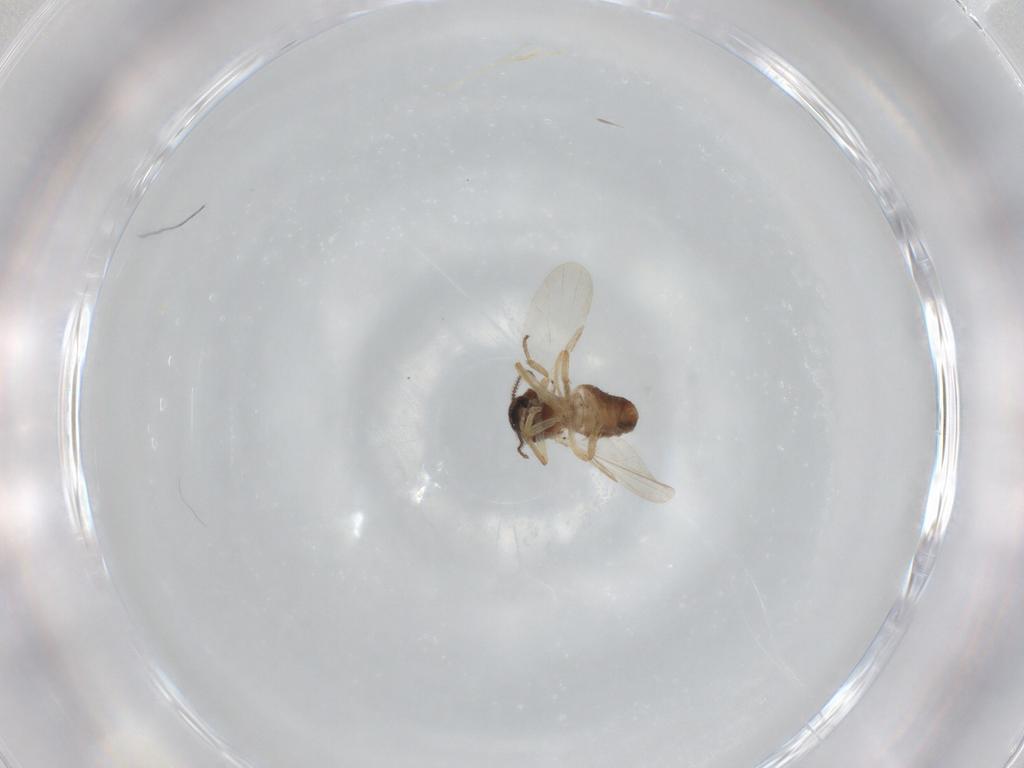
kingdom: Animalia
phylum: Arthropoda
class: Insecta
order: Diptera
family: Ceratopogonidae
